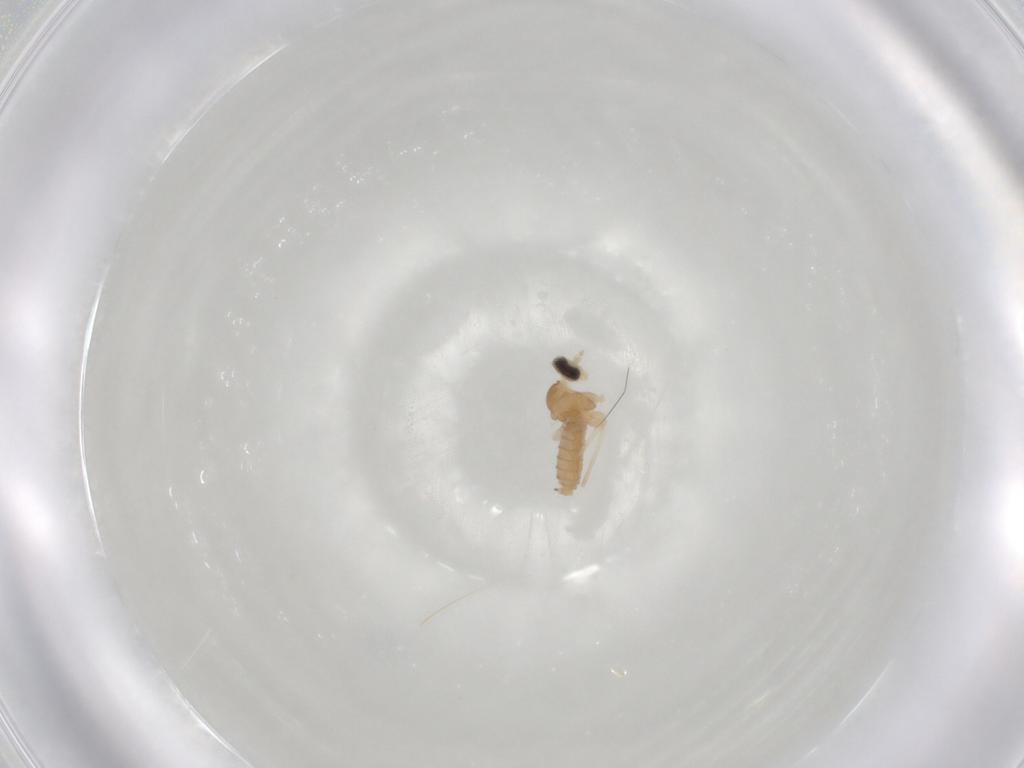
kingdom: Animalia
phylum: Arthropoda
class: Insecta
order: Diptera
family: Cecidomyiidae
